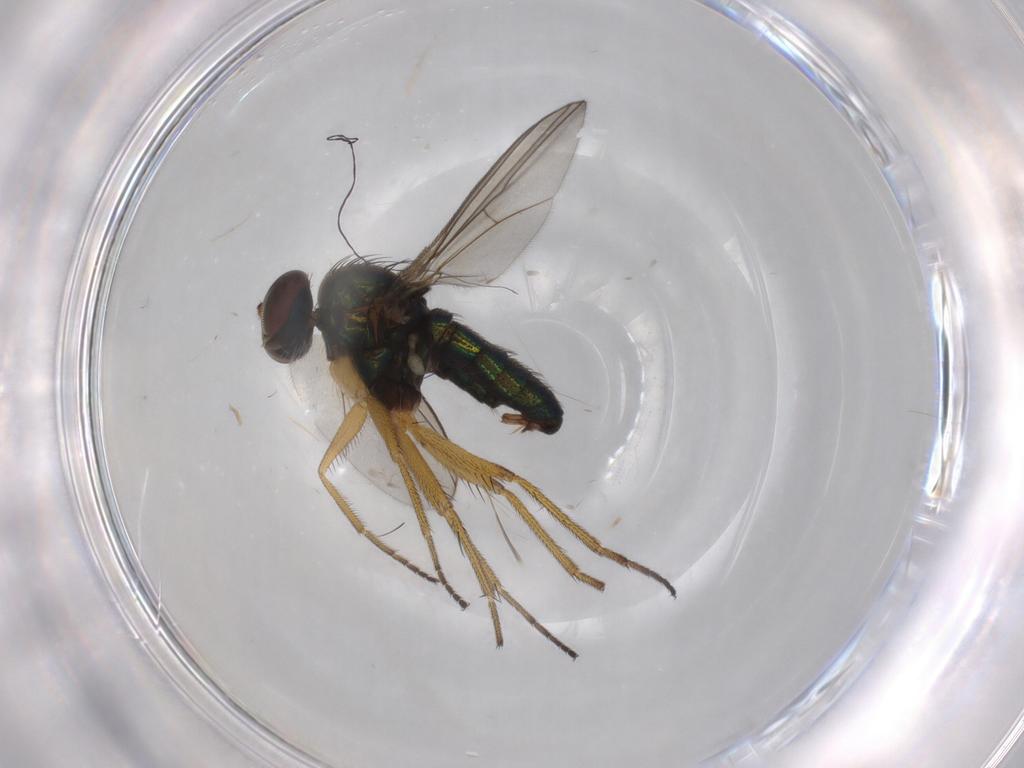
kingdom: Animalia
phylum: Arthropoda
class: Insecta
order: Diptera
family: Dolichopodidae
